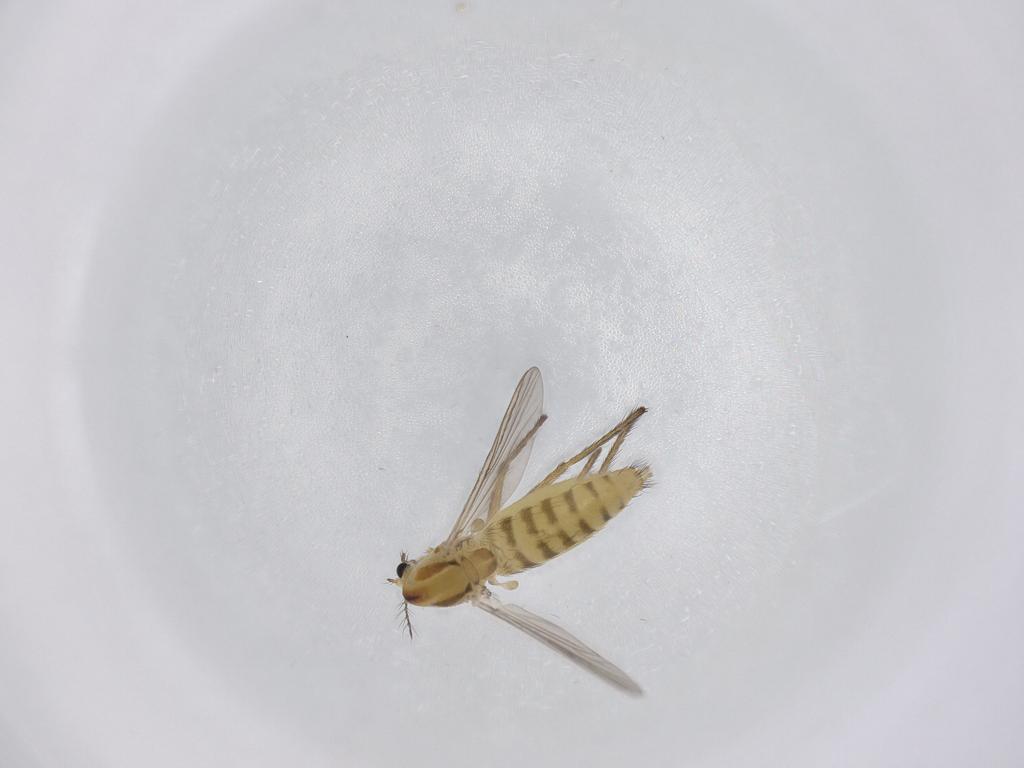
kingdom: Animalia
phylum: Arthropoda
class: Insecta
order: Diptera
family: Chironomidae
